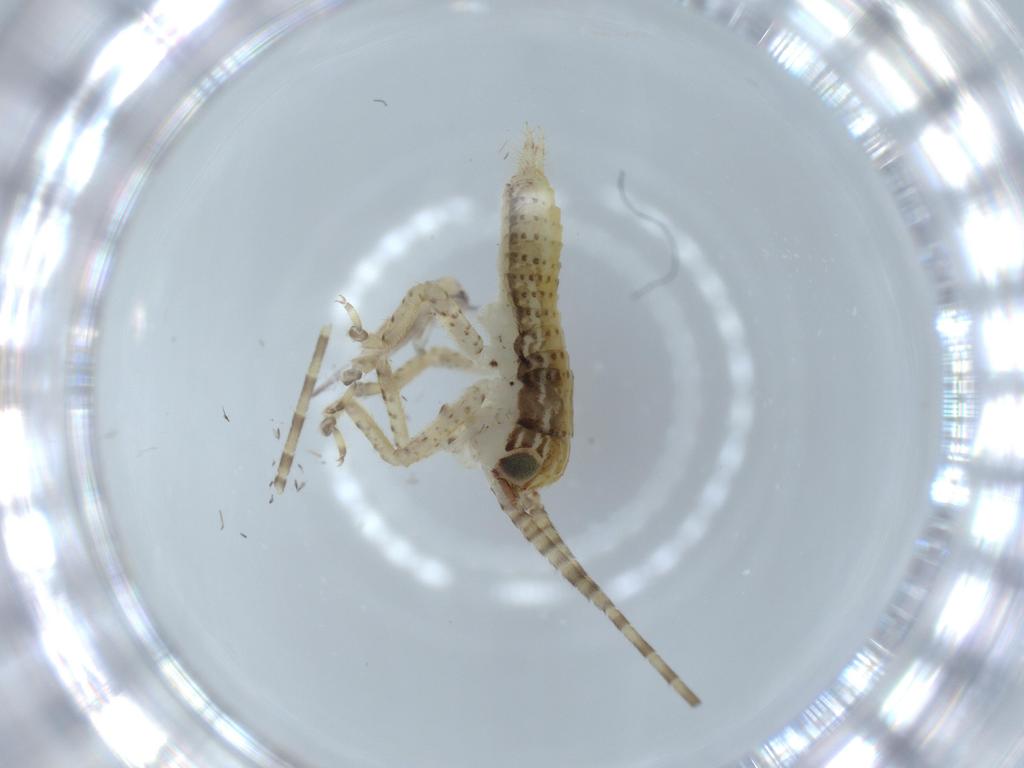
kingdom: Animalia
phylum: Arthropoda
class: Insecta
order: Orthoptera
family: Gryllidae
